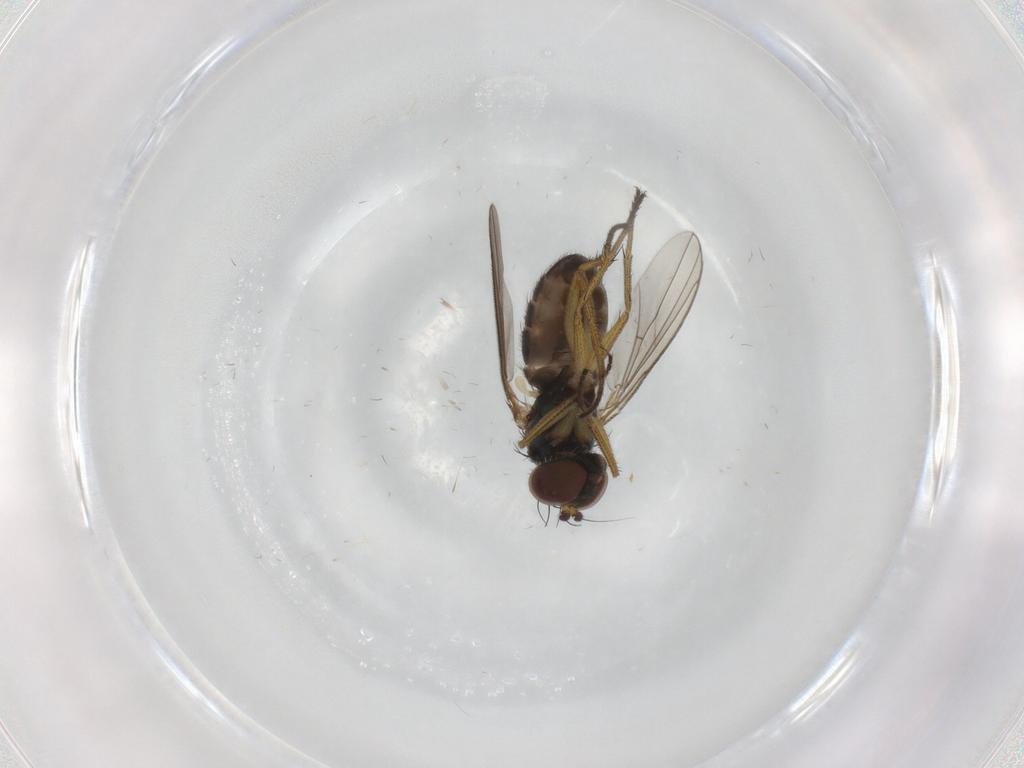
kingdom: Animalia
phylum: Arthropoda
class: Insecta
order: Diptera
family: Dolichopodidae
